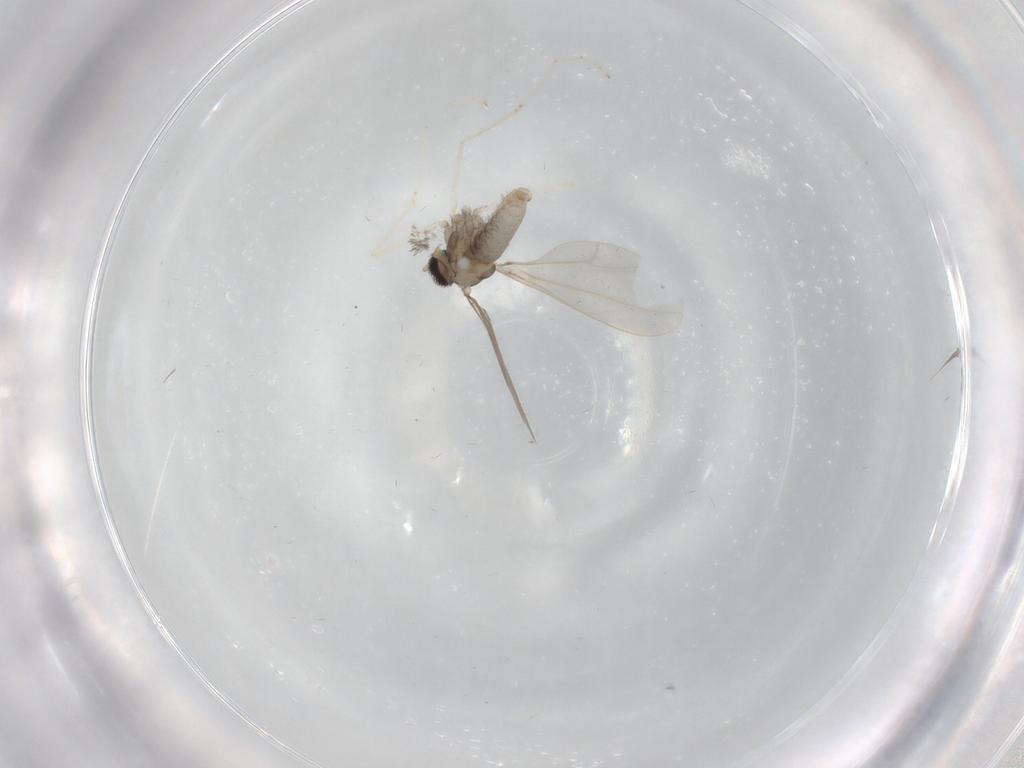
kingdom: Animalia
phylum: Arthropoda
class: Insecta
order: Diptera
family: Cecidomyiidae
